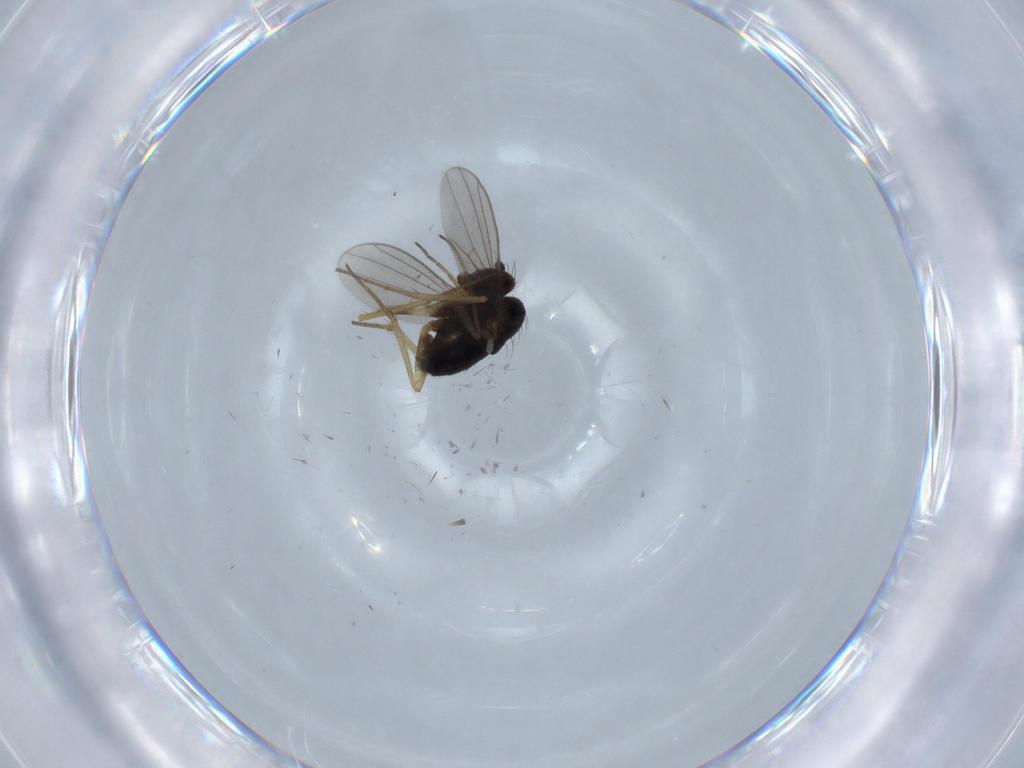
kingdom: Animalia
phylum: Arthropoda
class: Insecta
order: Diptera
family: Dolichopodidae
